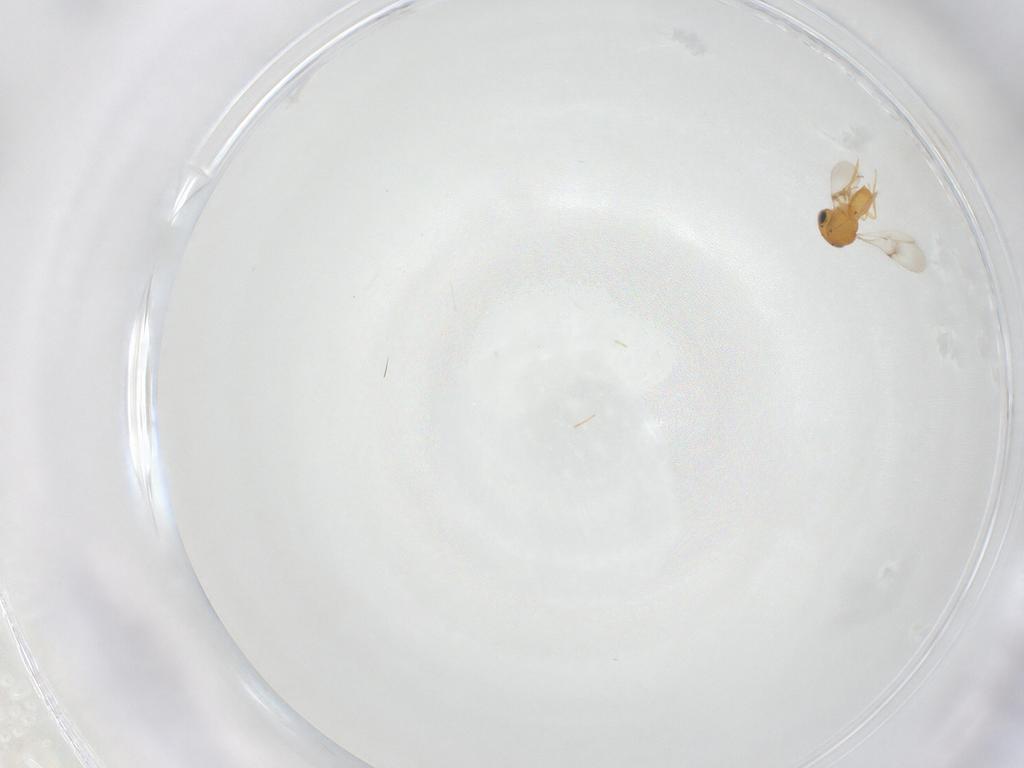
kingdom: Animalia
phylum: Arthropoda
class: Insecta
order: Hymenoptera
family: Scelionidae
